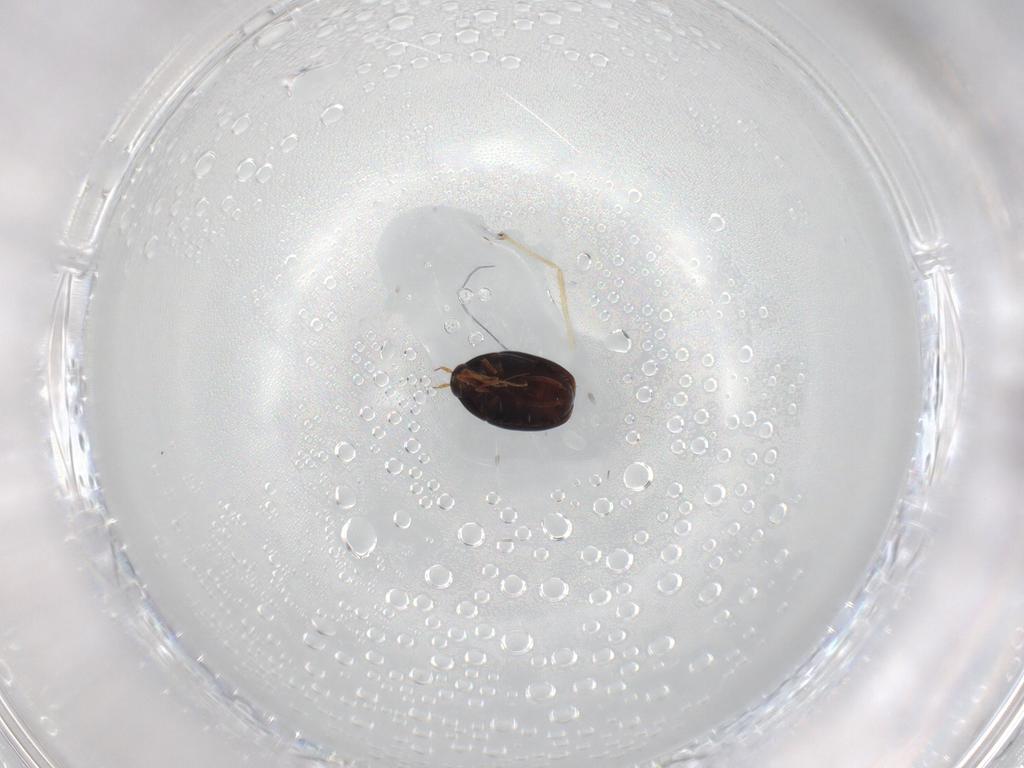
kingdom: Animalia
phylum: Arthropoda
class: Insecta
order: Coleoptera
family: Staphylinidae
